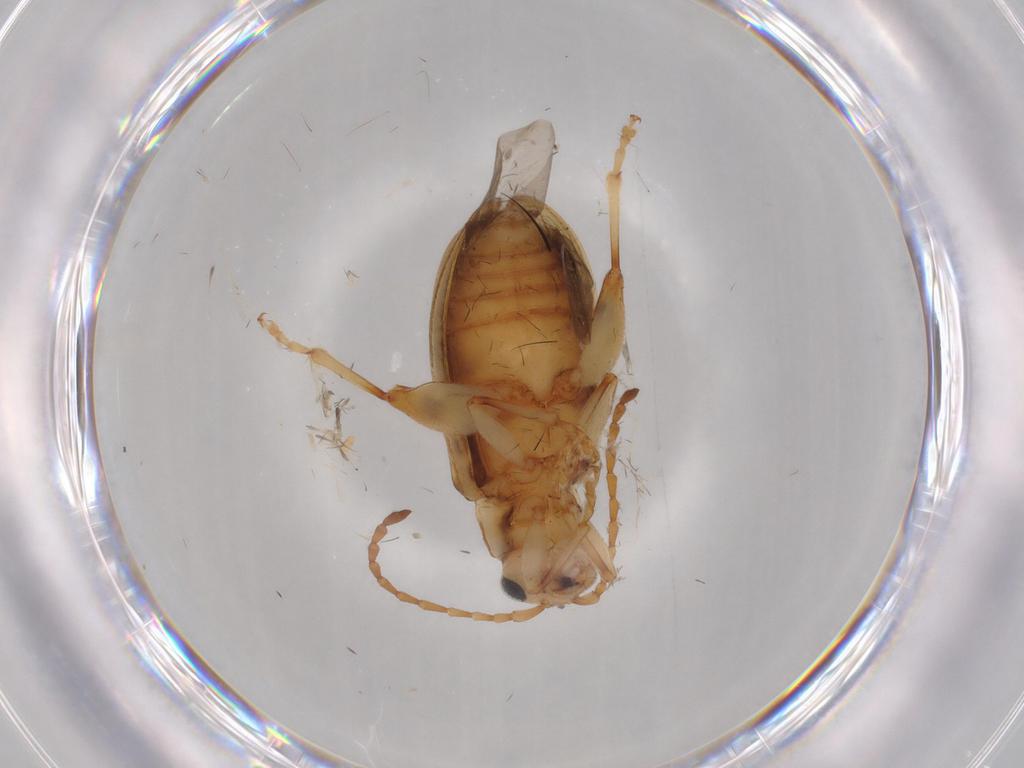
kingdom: Animalia
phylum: Arthropoda
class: Insecta
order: Coleoptera
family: Chrysomelidae
